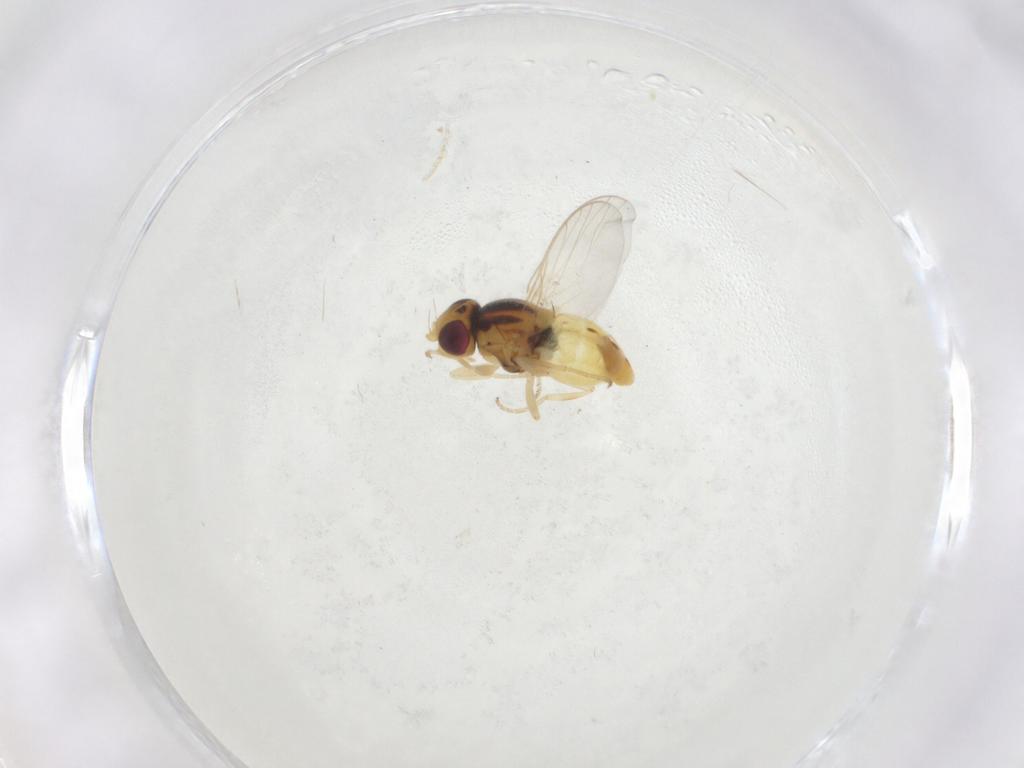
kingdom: Animalia
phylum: Arthropoda
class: Insecta
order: Diptera
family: Chloropidae
